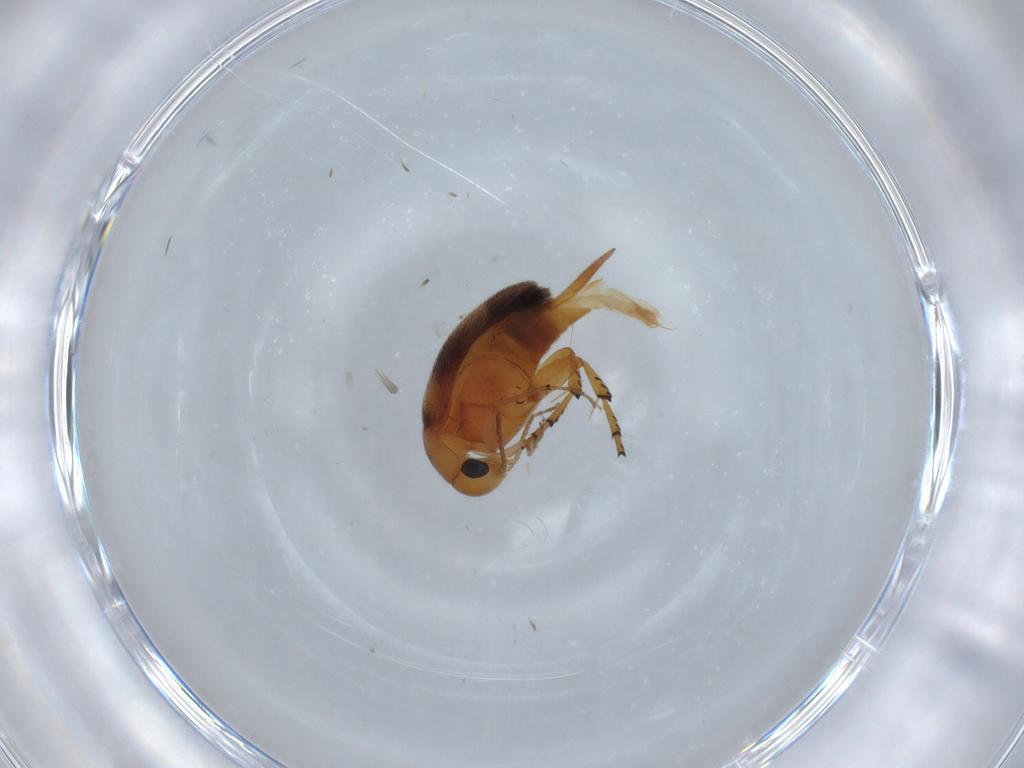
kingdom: Animalia
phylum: Arthropoda
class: Insecta
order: Coleoptera
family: Mordellidae
